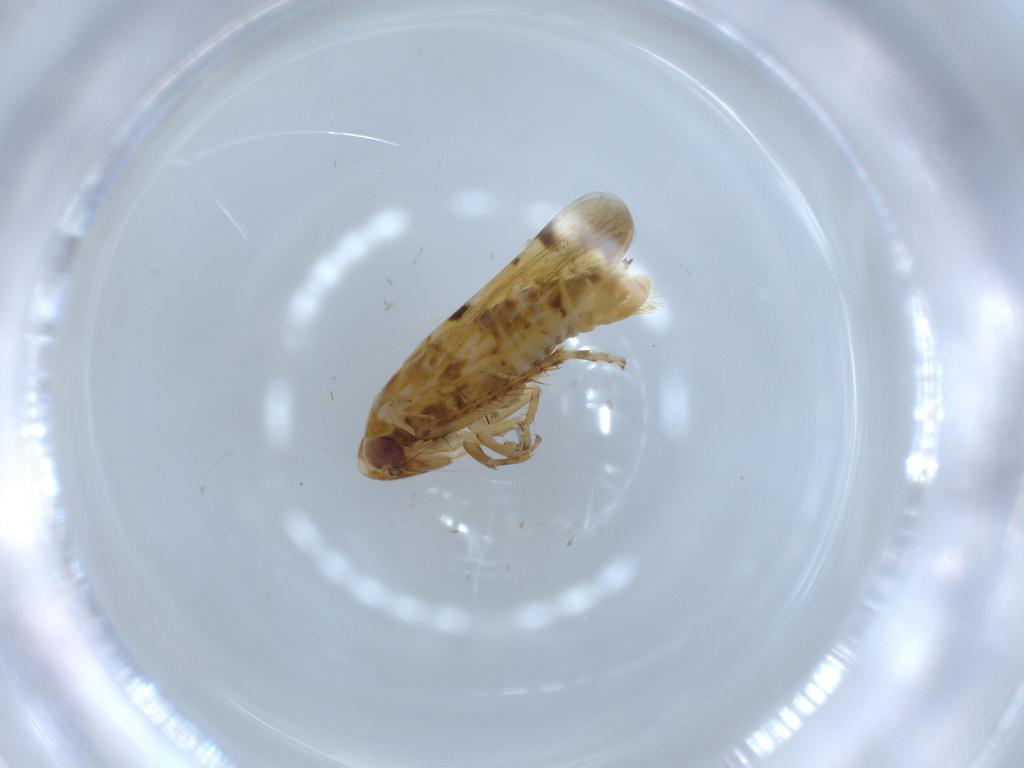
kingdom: Animalia
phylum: Arthropoda
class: Insecta
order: Hemiptera
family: Cicadellidae
